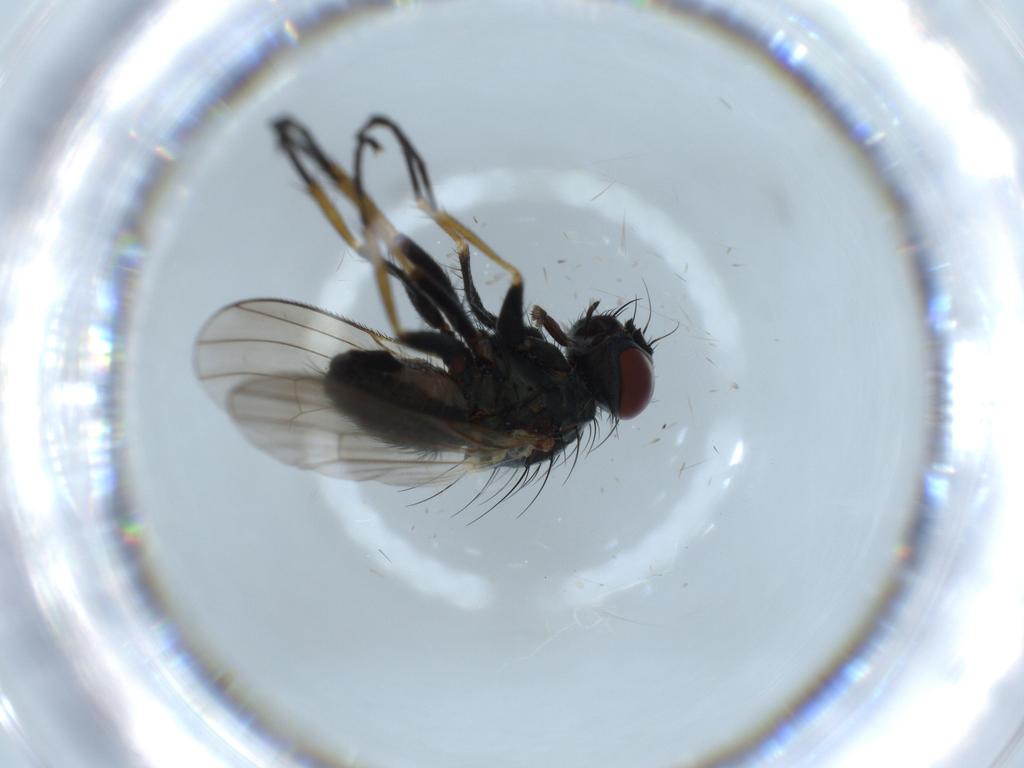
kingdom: Animalia
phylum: Arthropoda
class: Insecta
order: Diptera
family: Muscidae
